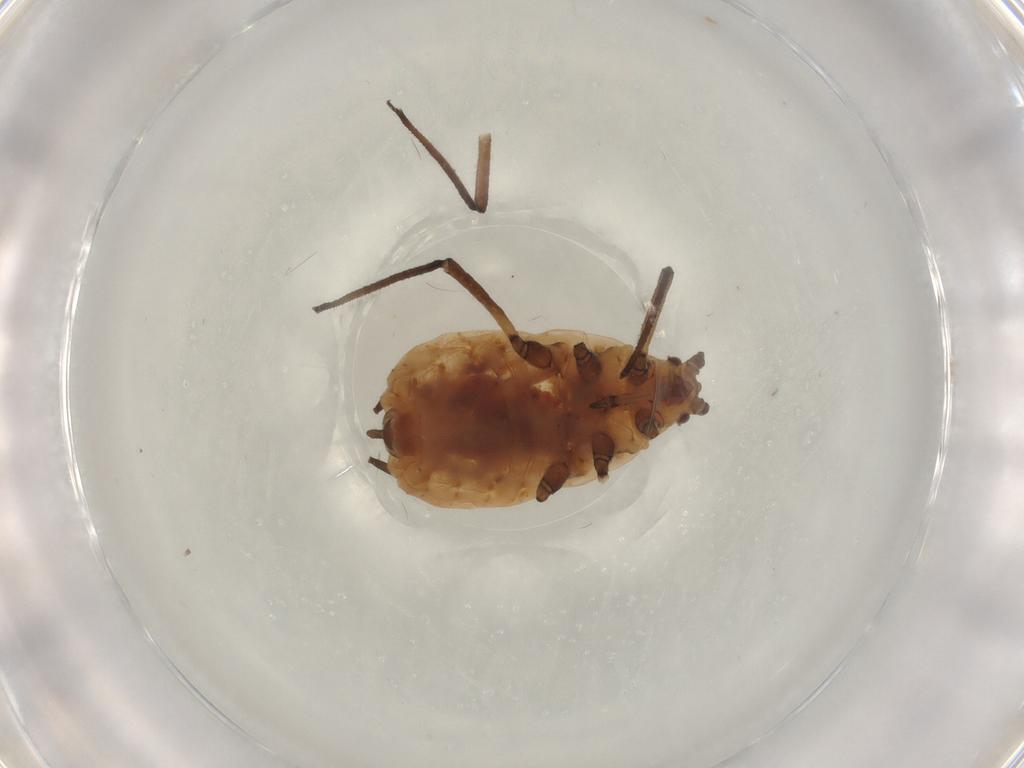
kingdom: Animalia
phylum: Arthropoda
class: Insecta
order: Hemiptera
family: Aphididae
